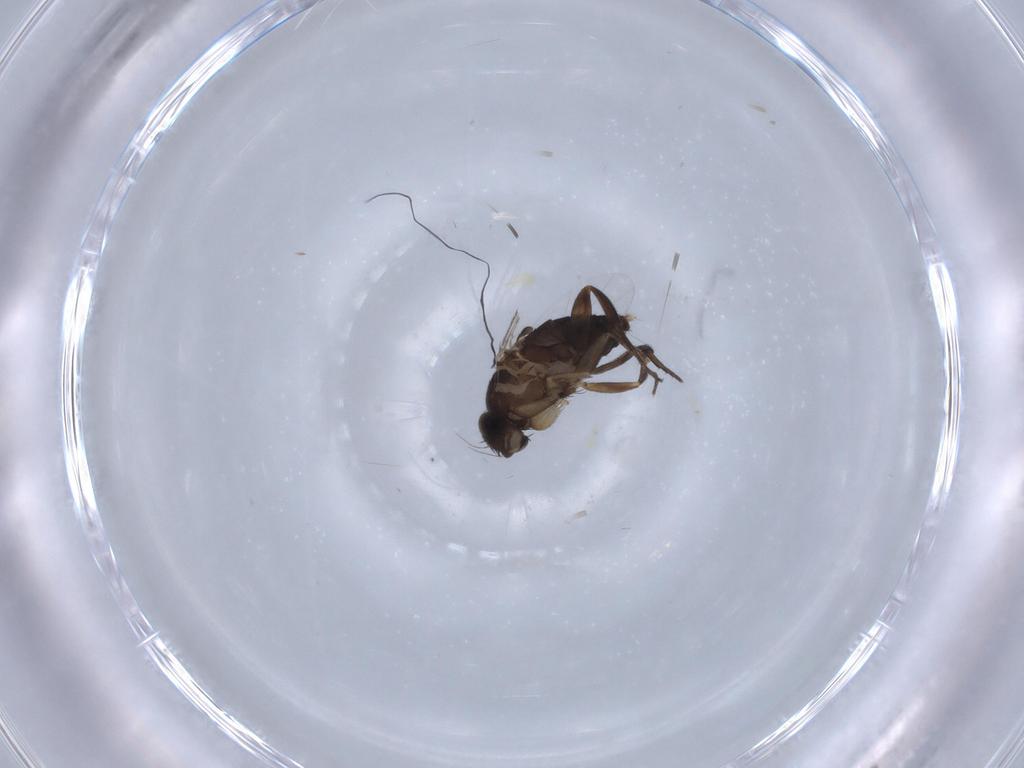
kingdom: Animalia
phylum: Arthropoda
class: Insecta
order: Diptera
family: Phoridae
